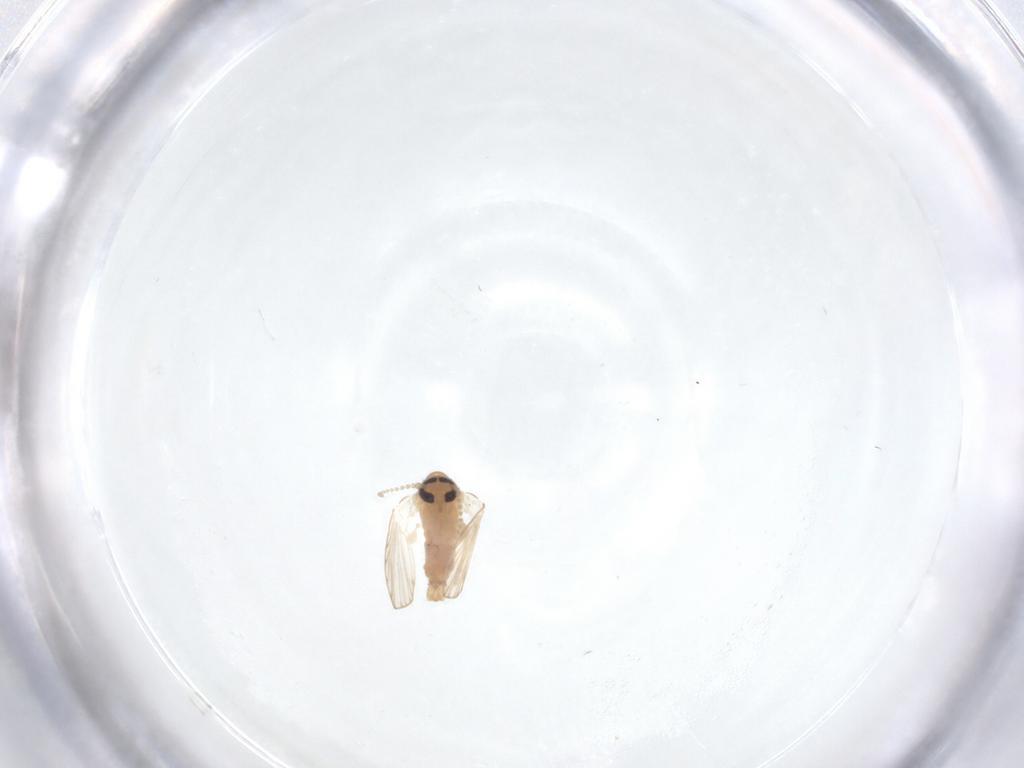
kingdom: Animalia
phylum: Arthropoda
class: Insecta
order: Diptera
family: Psychodidae
